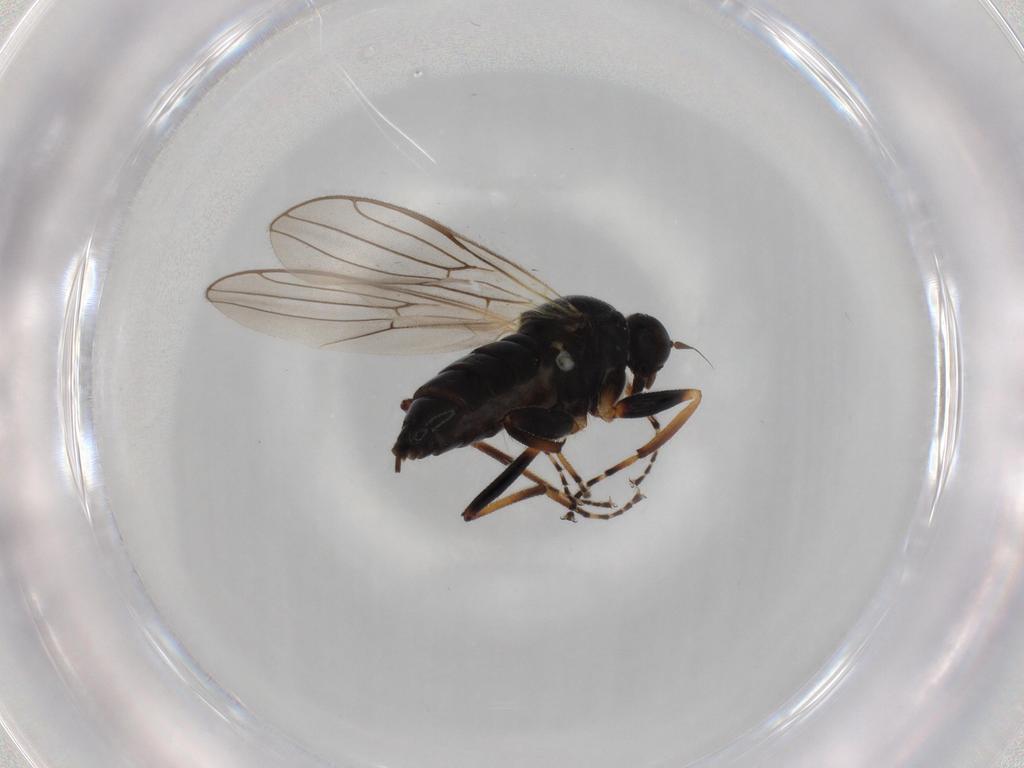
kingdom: Animalia
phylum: Arthropoda
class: Insecta
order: Diptera
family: Hybotidae
